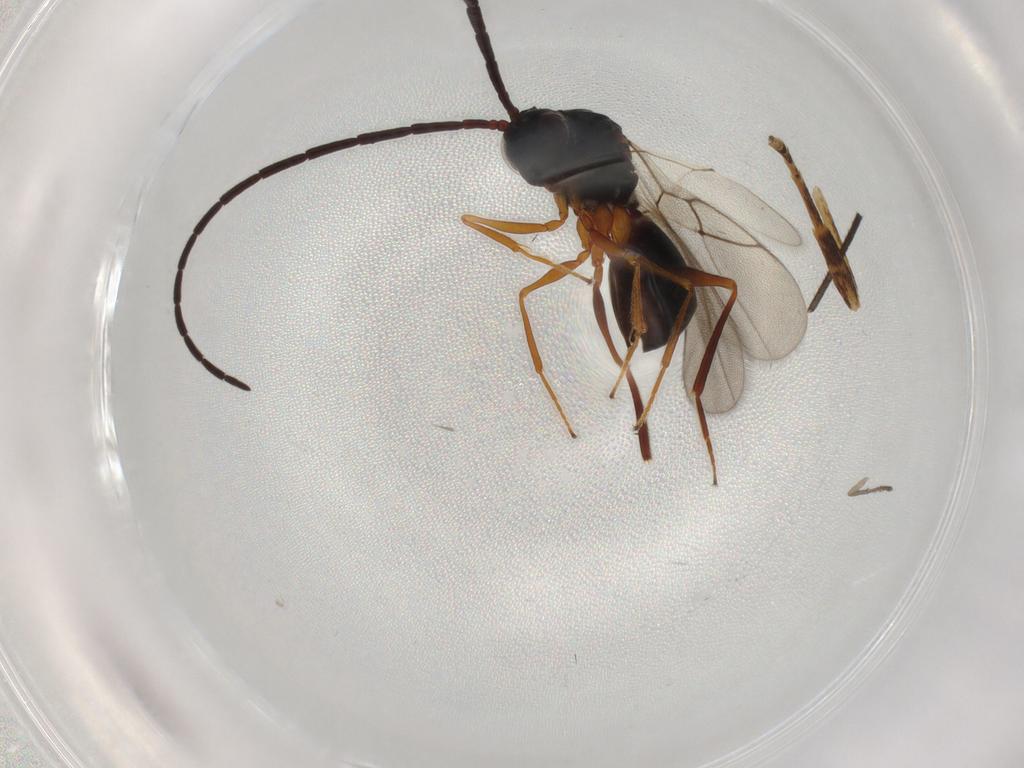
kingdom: Animalia
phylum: Arthropoda
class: Insecta
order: Hymenoptera
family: Figitidae
